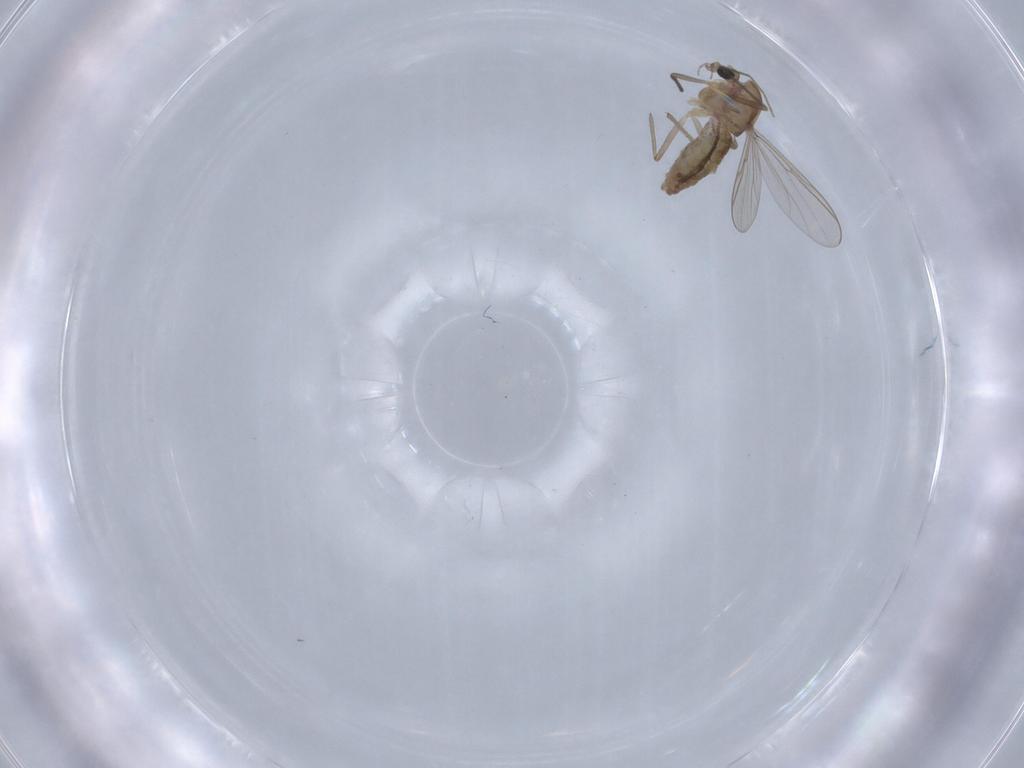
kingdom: Animalia
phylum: Arthropoda
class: Insecta
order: Diptera
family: Chironomidae
